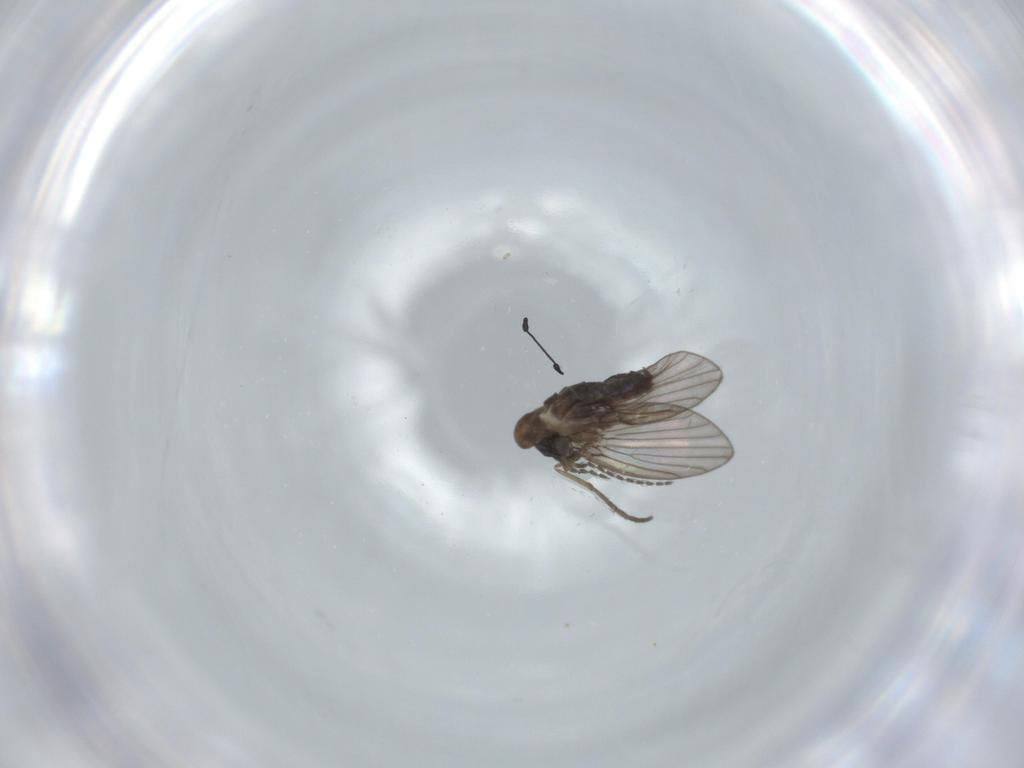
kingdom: Animalia
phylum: Arthropoda
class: Insecta
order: Diptera
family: Psychodidae
